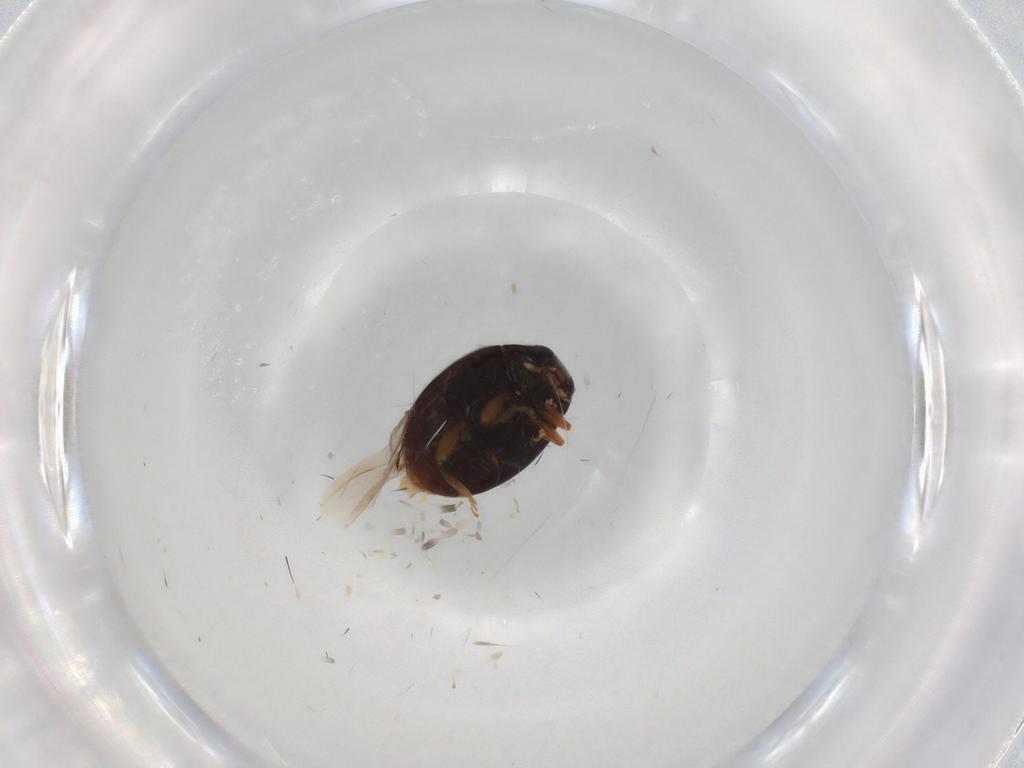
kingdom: Animalia
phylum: Arthropoda
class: Insecta
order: Coleoptera
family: Coccinellidae
